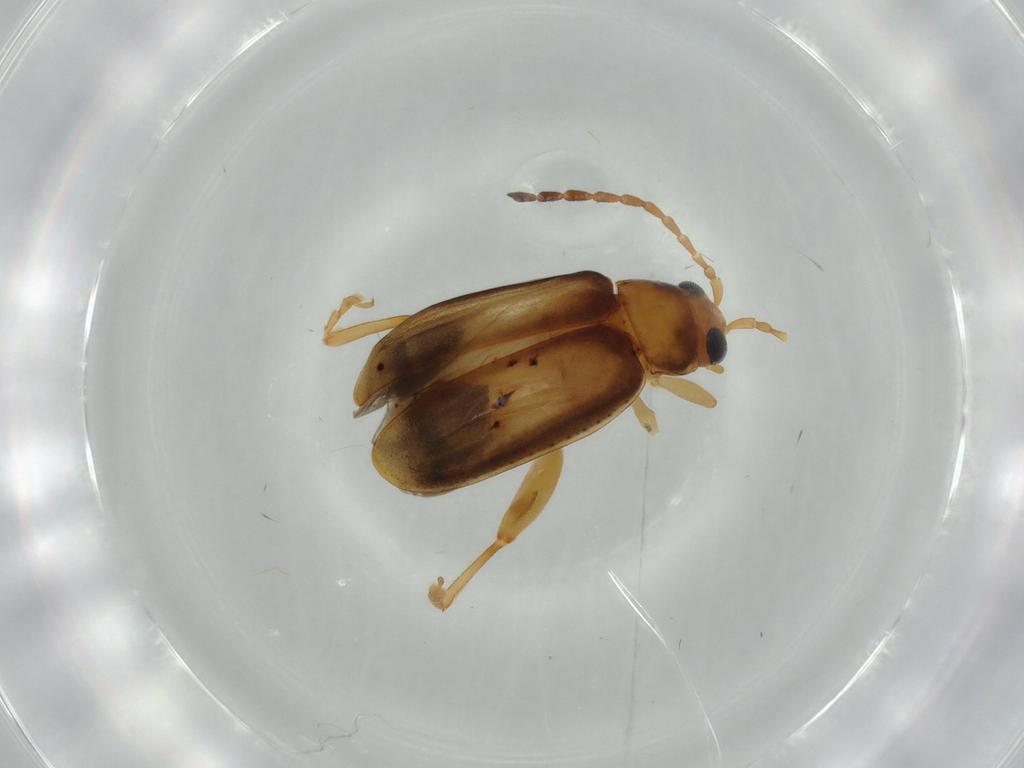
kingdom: Animalia
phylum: Arthropoda
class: Insecta
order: Coleoptera
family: Chrysomelidae
